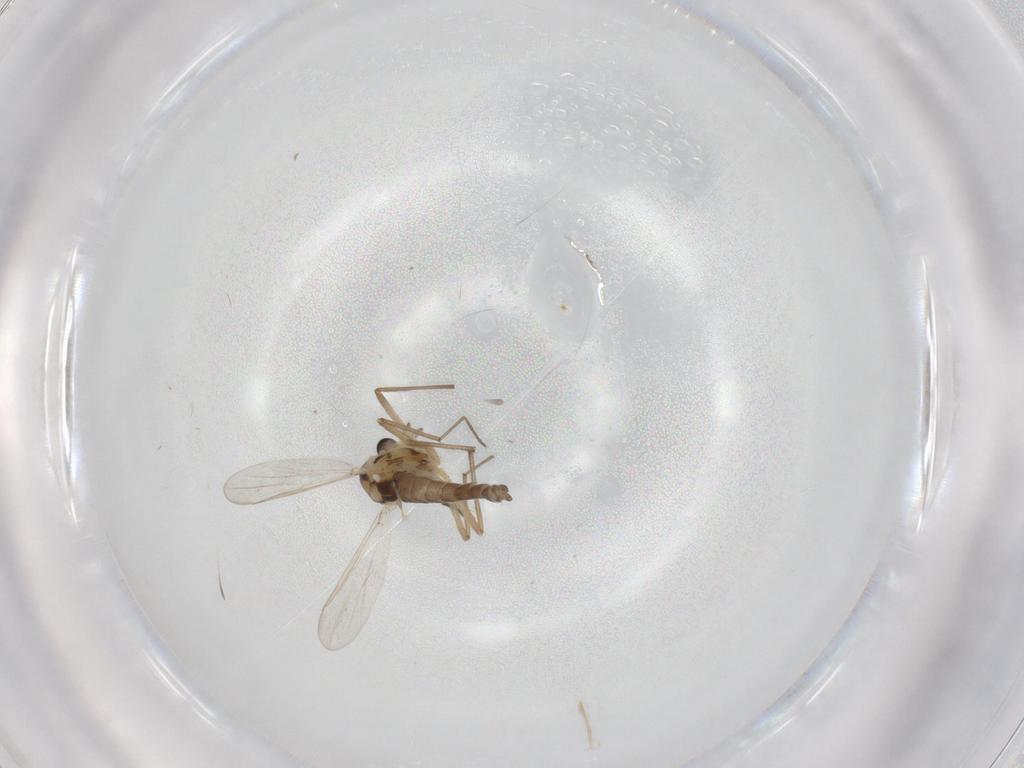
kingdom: Animalia
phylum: Arthropoda
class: Insecta
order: Diptera
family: Chironomidae
